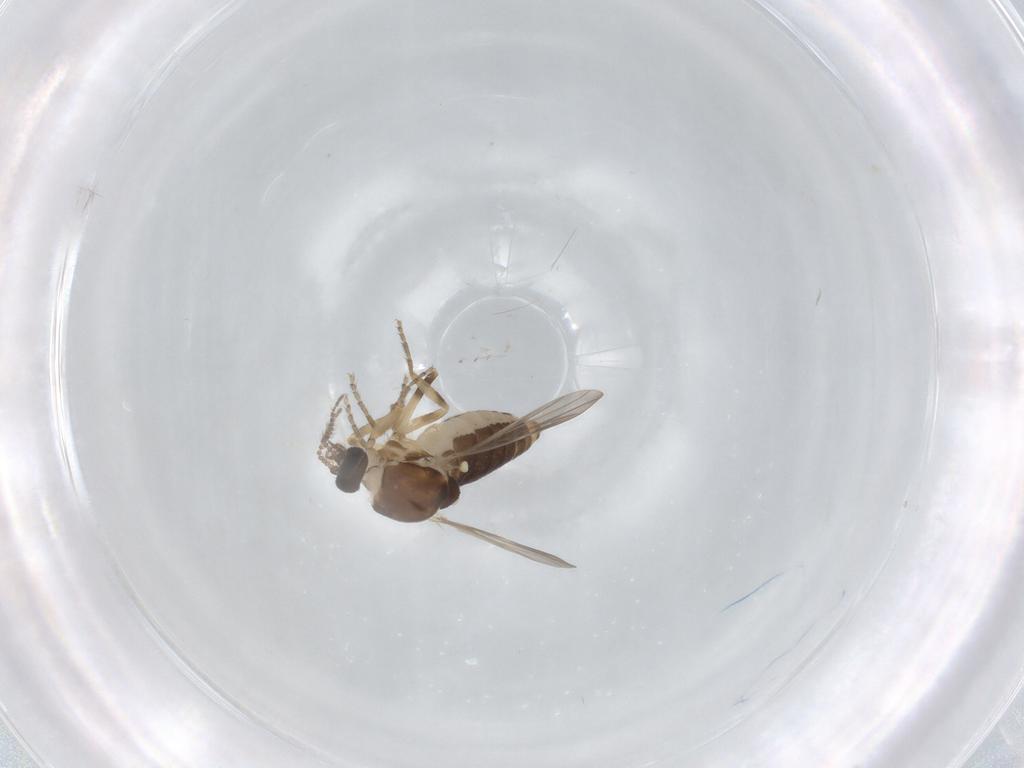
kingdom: Animalia
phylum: Arthropoda
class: Insecta
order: Diptera
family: Ceratopogonidae
